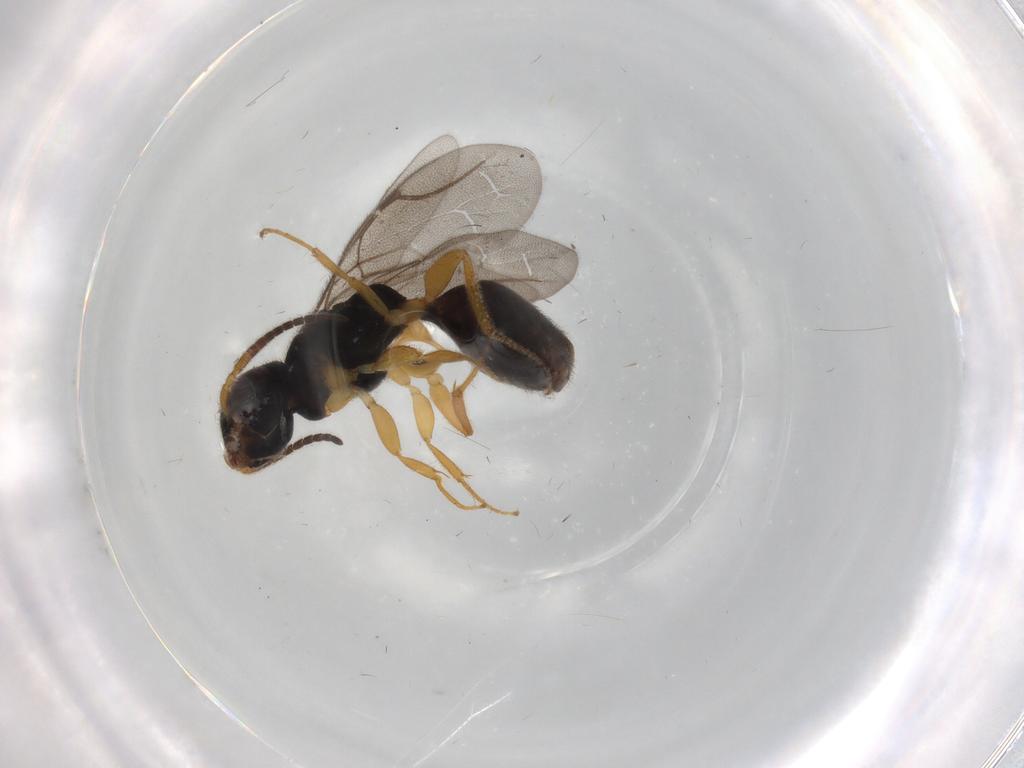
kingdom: Animalia
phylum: Arthropoda
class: Insecta
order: Hymenoptera
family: Bethylidae
